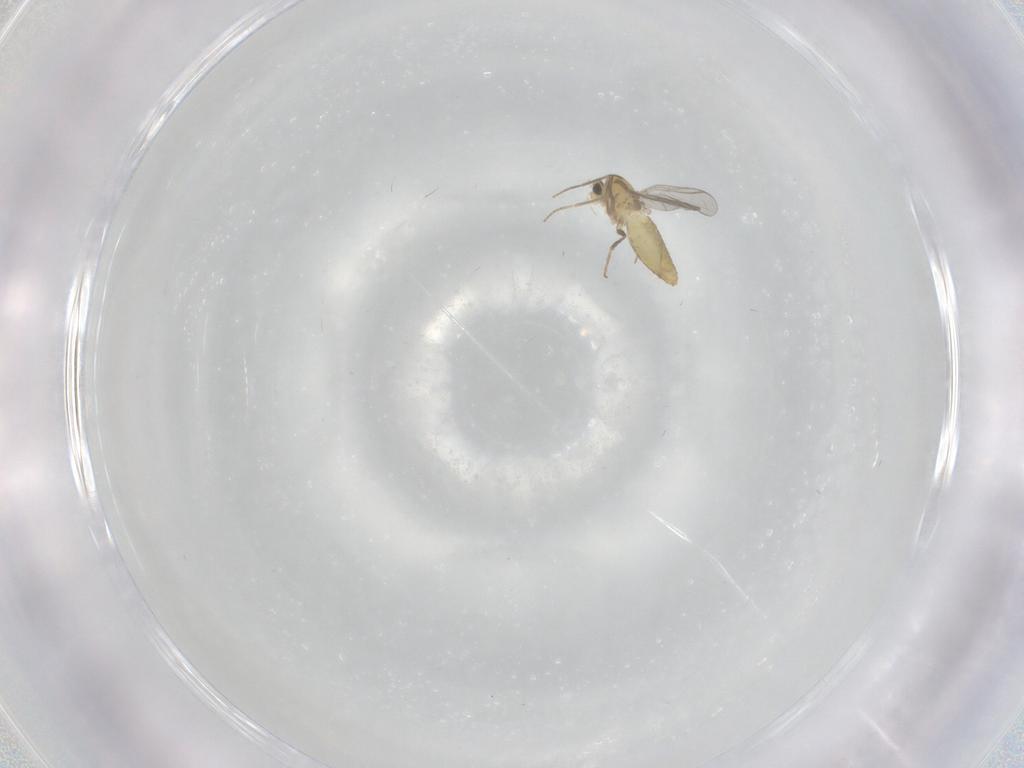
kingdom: Animalia
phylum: Arthropoda
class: Insecta
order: Diptera
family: Chironomidae
